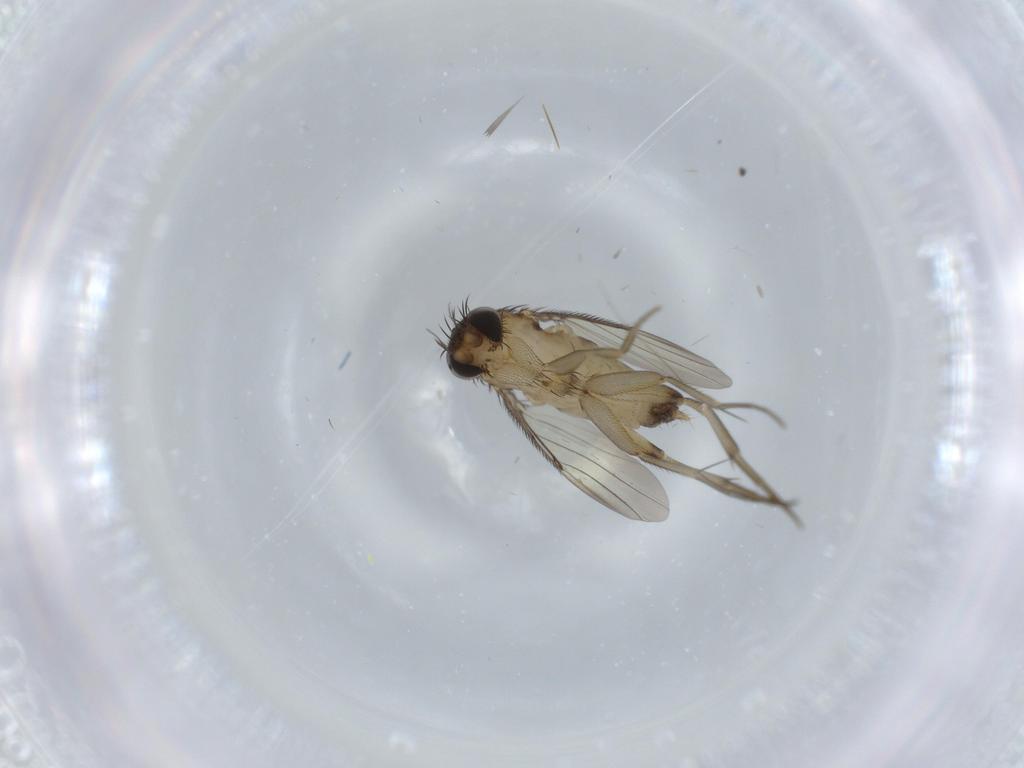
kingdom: Animalia
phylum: Arthropoda
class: Insecta
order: Diptera
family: Phoridae
